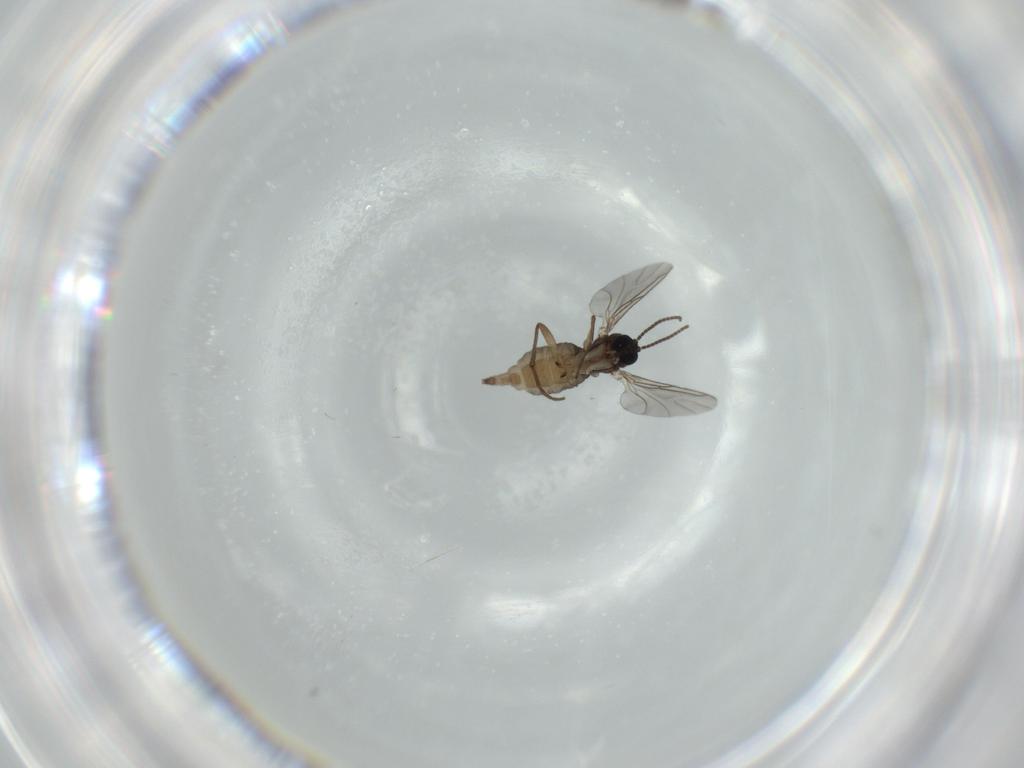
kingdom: Animalia
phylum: Arthropoda
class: Insecta
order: Diptera
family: Sciaridae
